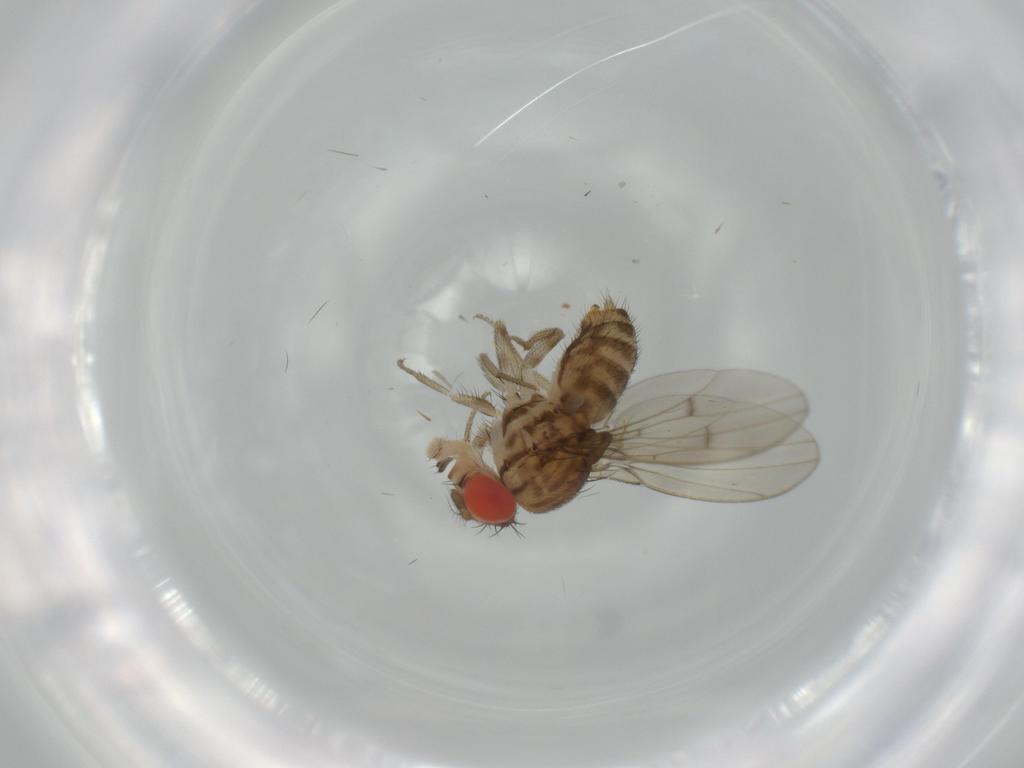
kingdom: Animalia
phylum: Arthropoda
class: Insecta
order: Diptera
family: Drosophilidae
